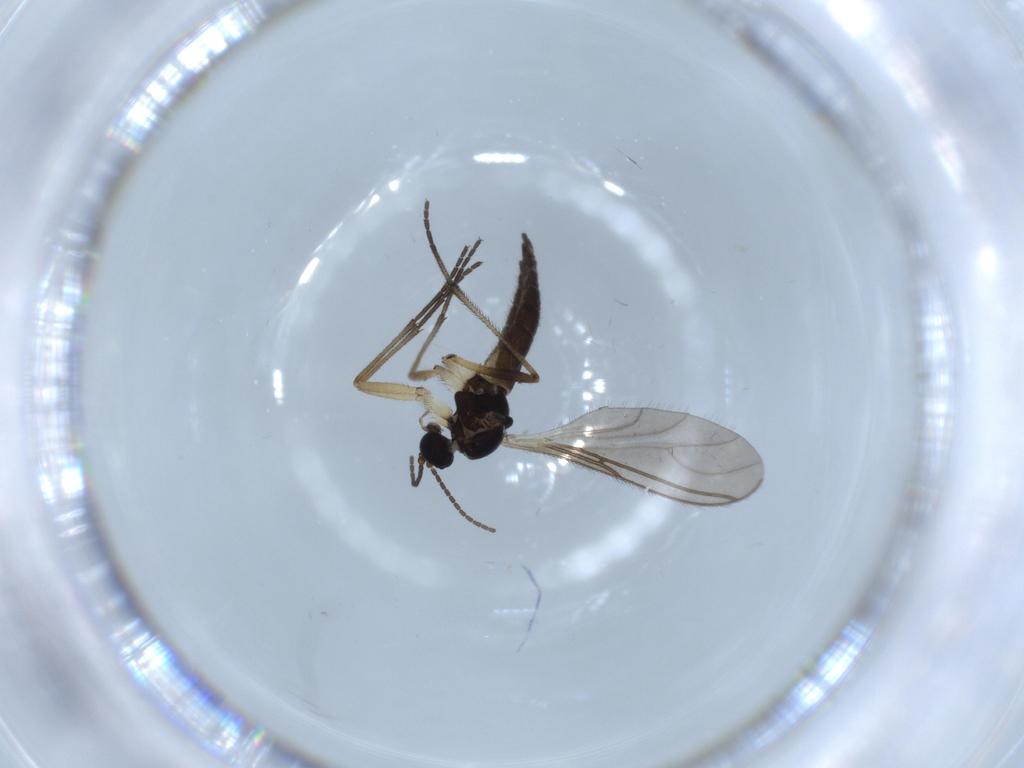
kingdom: Animalia
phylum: Arthropoda
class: Insecta
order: Diptera
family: Sciaridae
